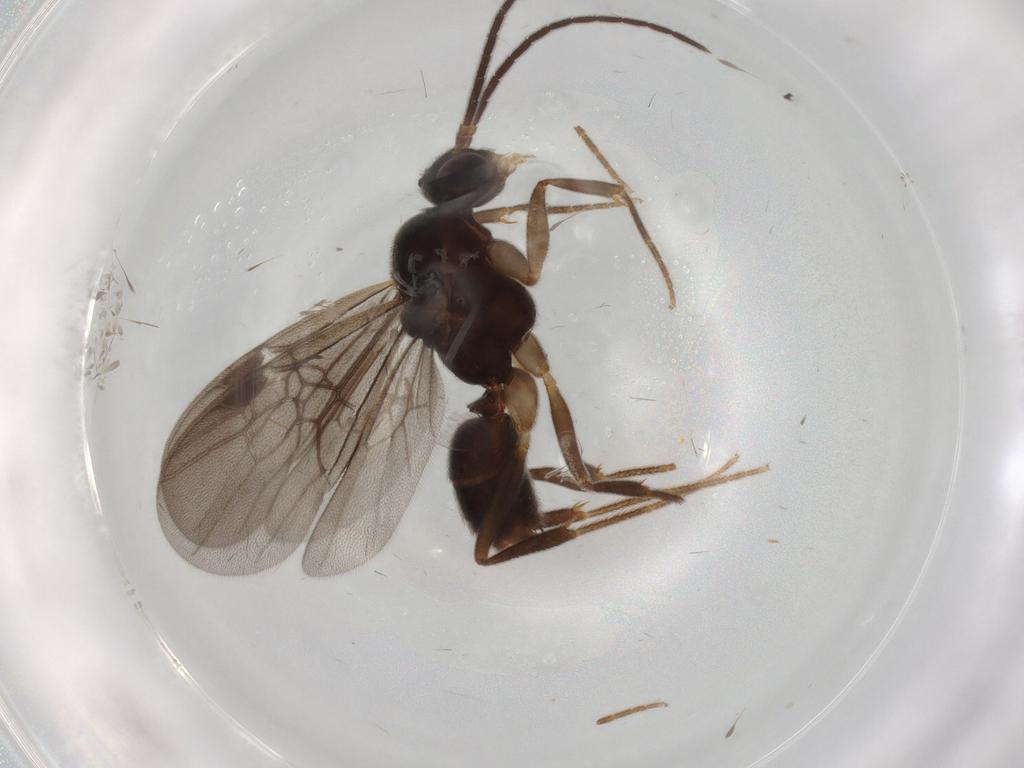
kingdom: Animalia
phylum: Arthropoda
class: Insecta
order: Hymenoptera
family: Formicidae
